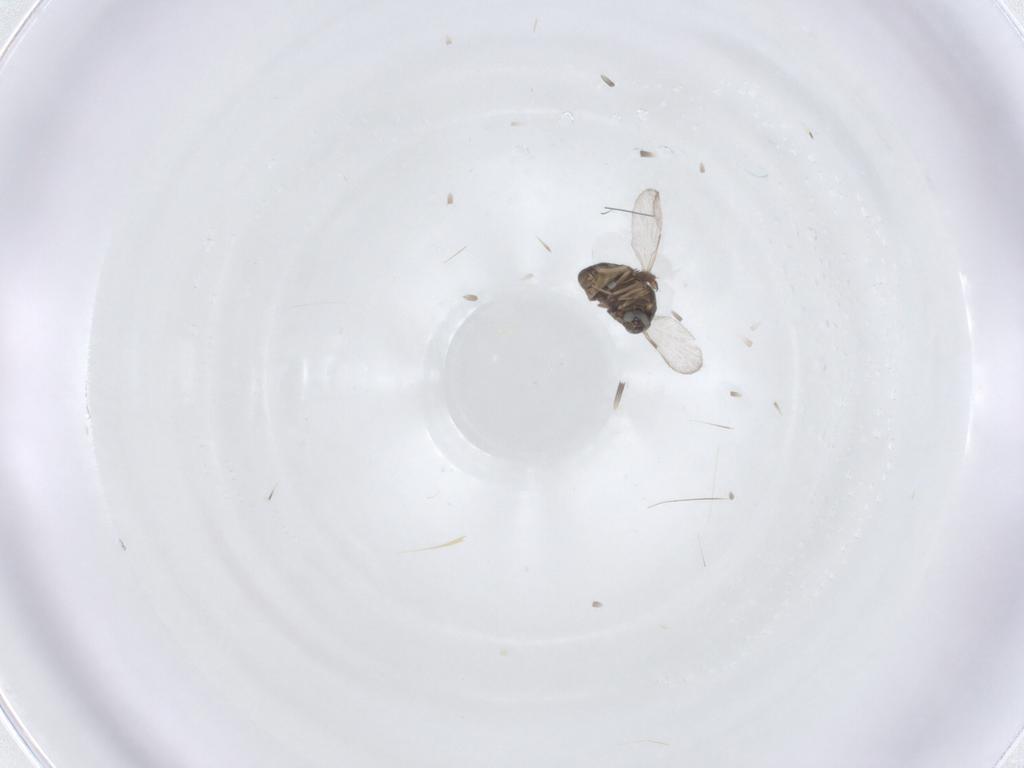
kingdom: Animalia
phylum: Arthropoda
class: Insecta
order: Diptera
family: Ceratopogonidae
